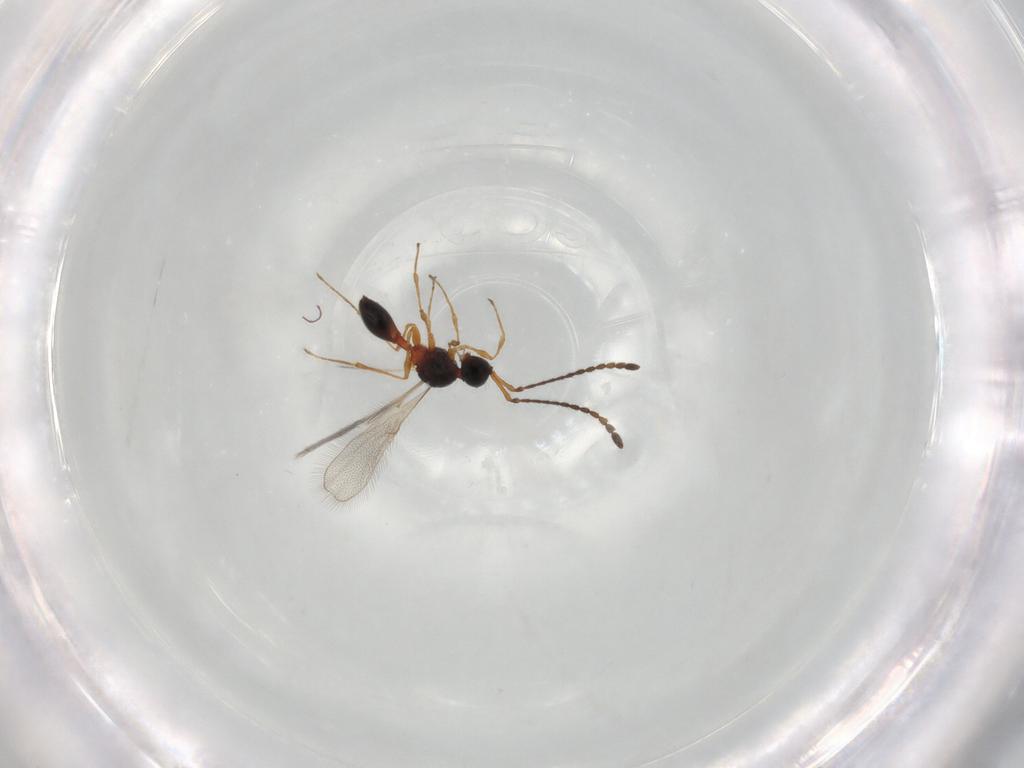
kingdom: Animalia
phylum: Arthropoda
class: Insecta
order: Hymenoptera
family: Diapriidae
